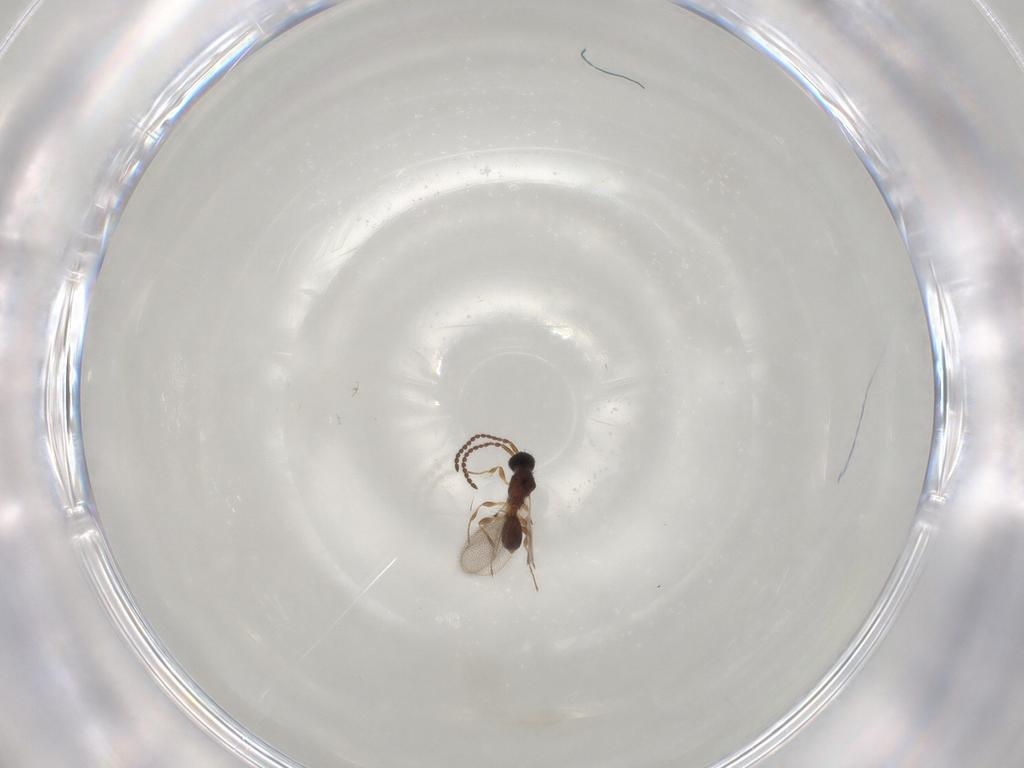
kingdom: Animalia
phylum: Arthropoda
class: Insecta
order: Hymenoptera
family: Diapriidae
